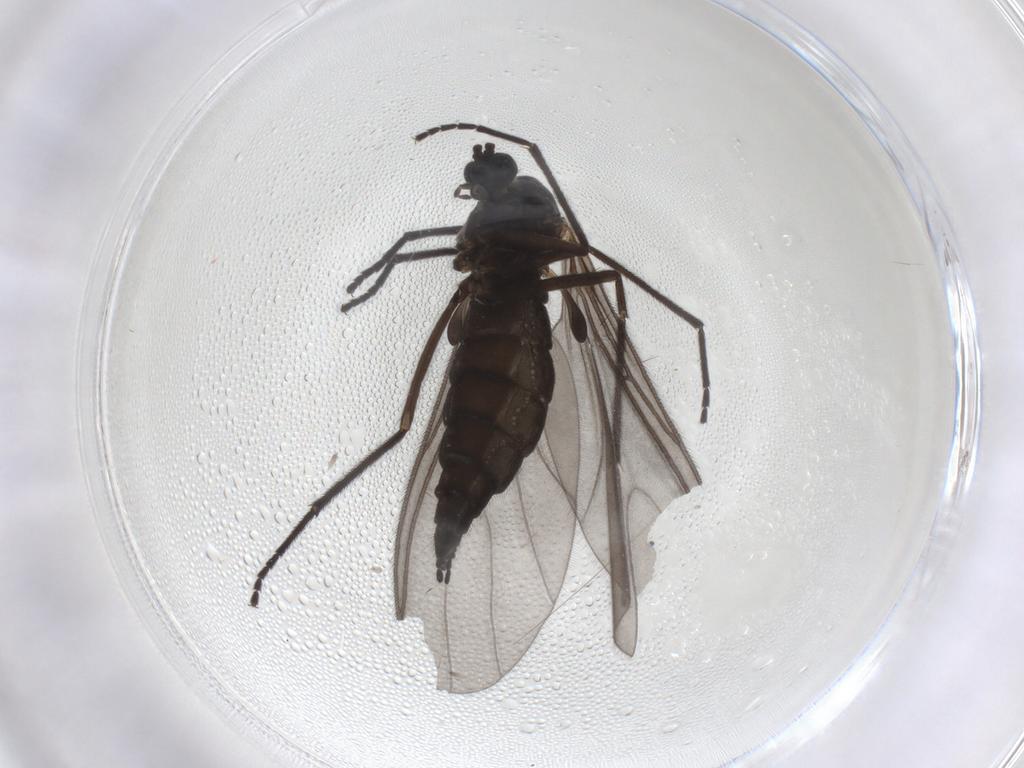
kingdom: Animalia
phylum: Arthropoda
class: Insecta
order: Diptera
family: Sciaridae
